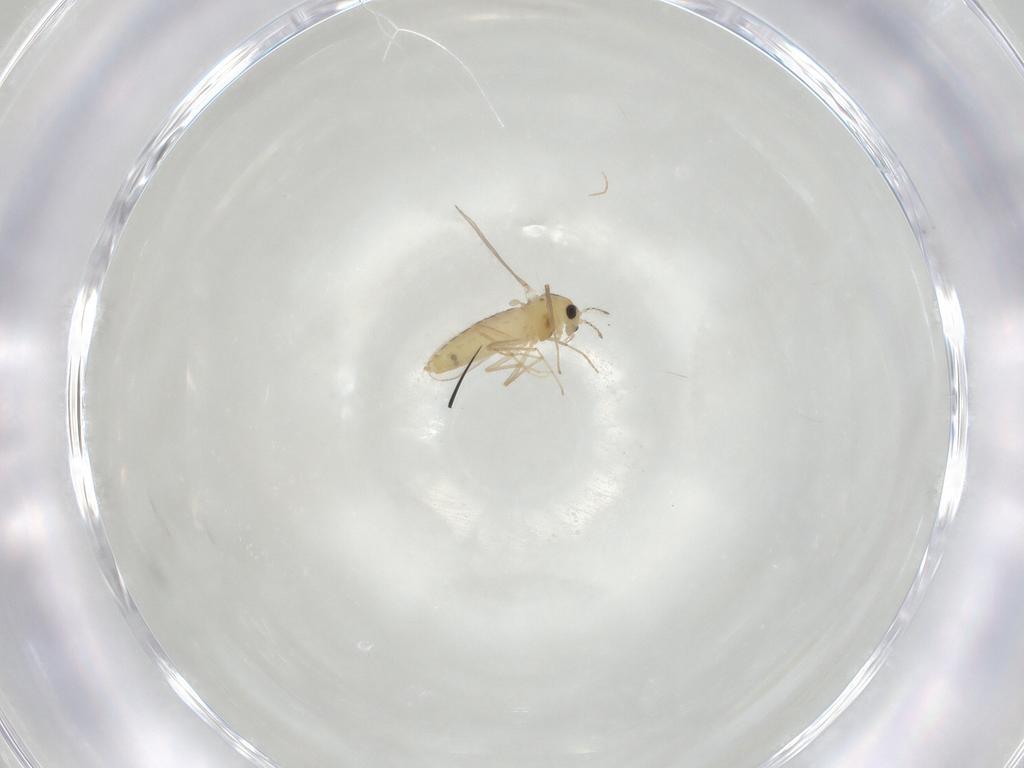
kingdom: Animalia
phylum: Arthropoda
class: Insecta
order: Diptera
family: Chironomidae
